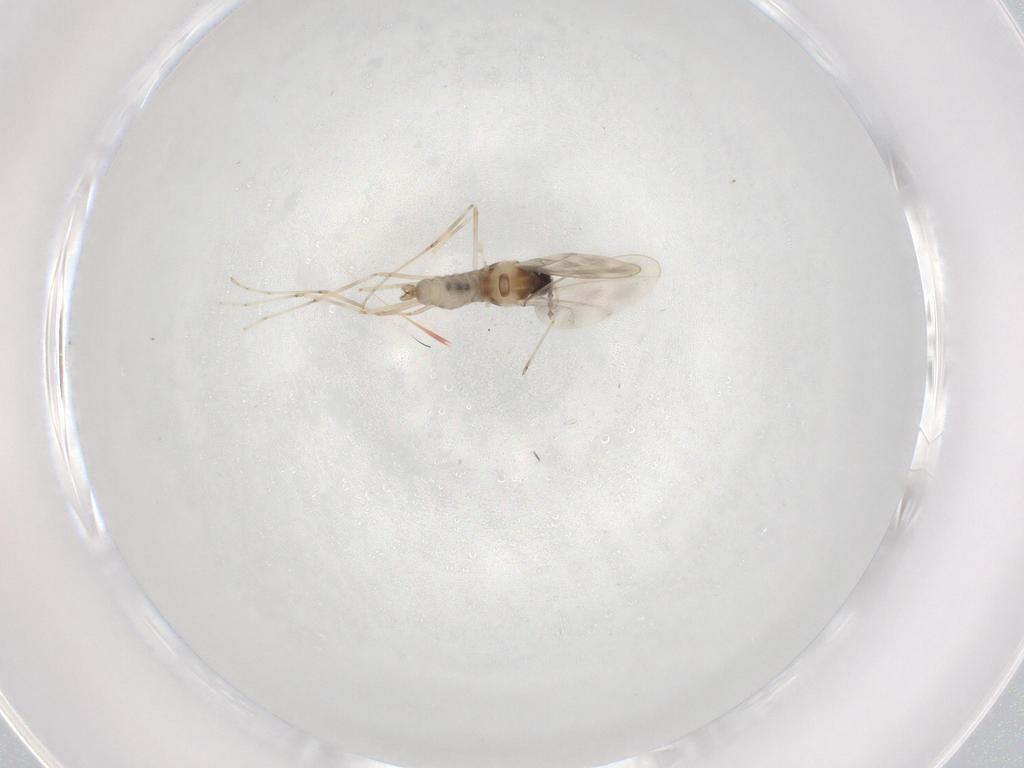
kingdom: Animalia
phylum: Arthropoda
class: Insecta
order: Diptera
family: Cecidomyiidae
